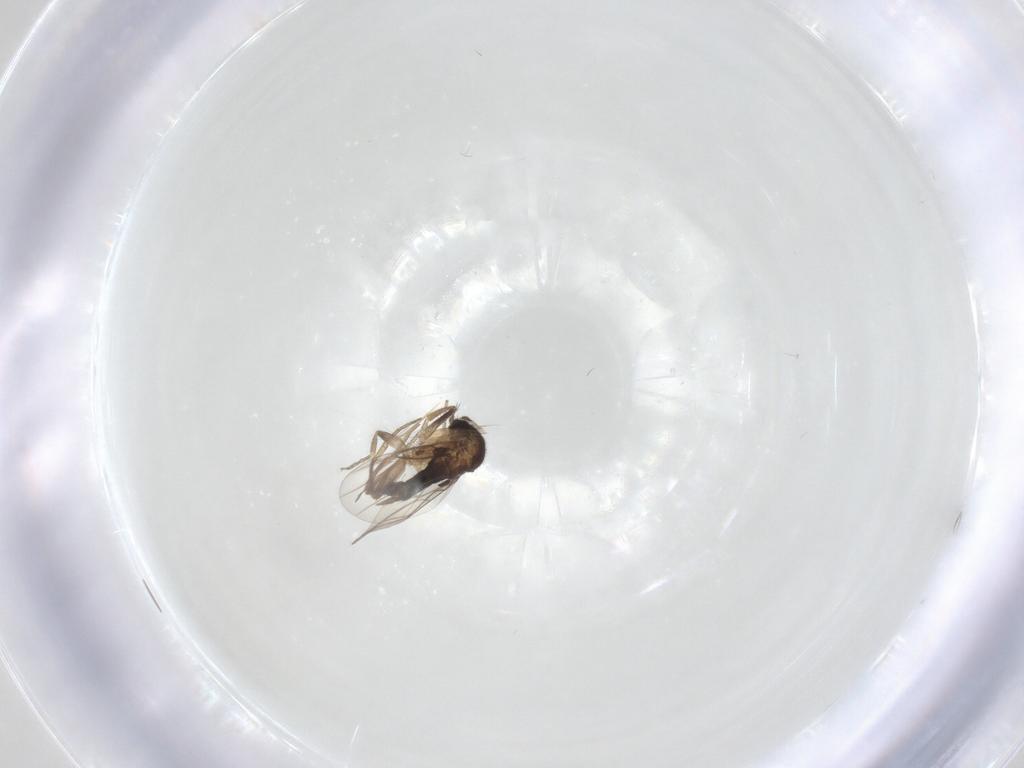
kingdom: Animalia
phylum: Arthropoda
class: Insecta
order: Diptera
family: Phoridae
